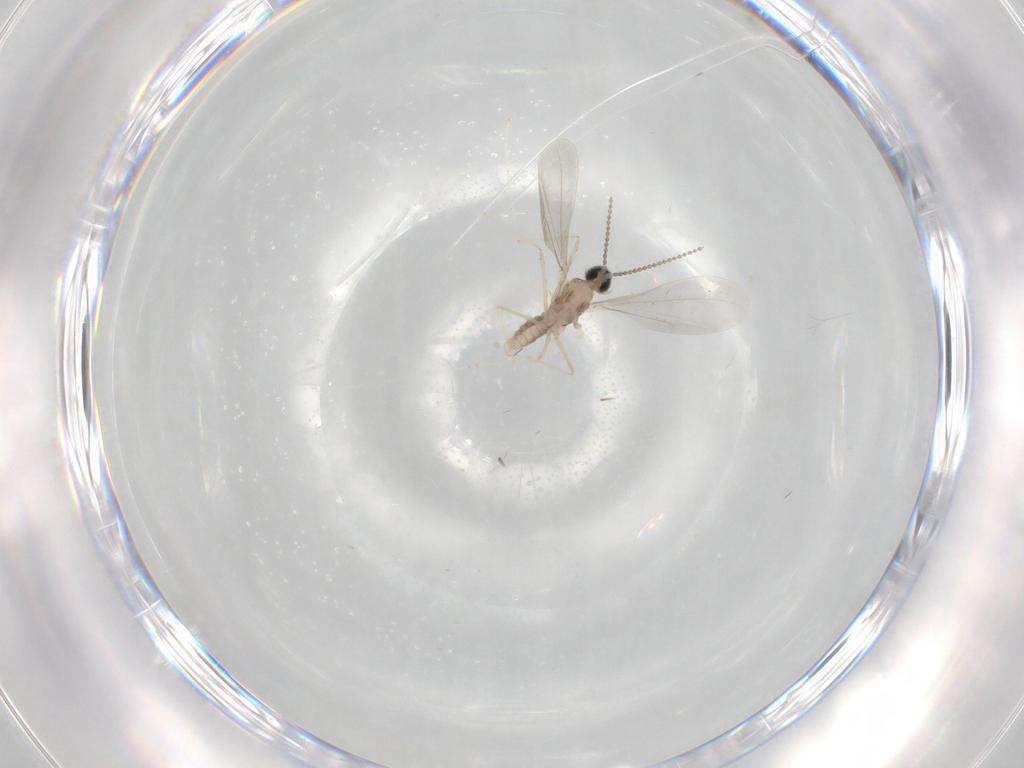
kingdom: Animalia
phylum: Arthropoda
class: Insecta
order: Diptera
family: Cecidomyiidae
